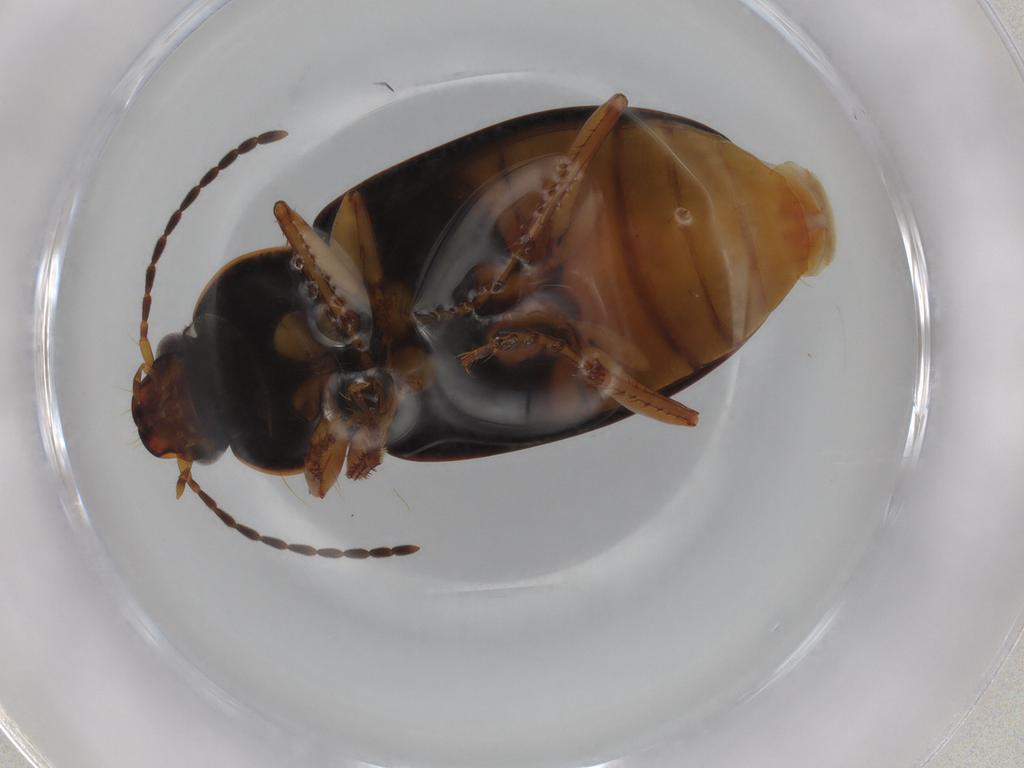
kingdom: Animalia
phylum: Arthropoda
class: Insecta
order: Coleoptera
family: Carabidae
